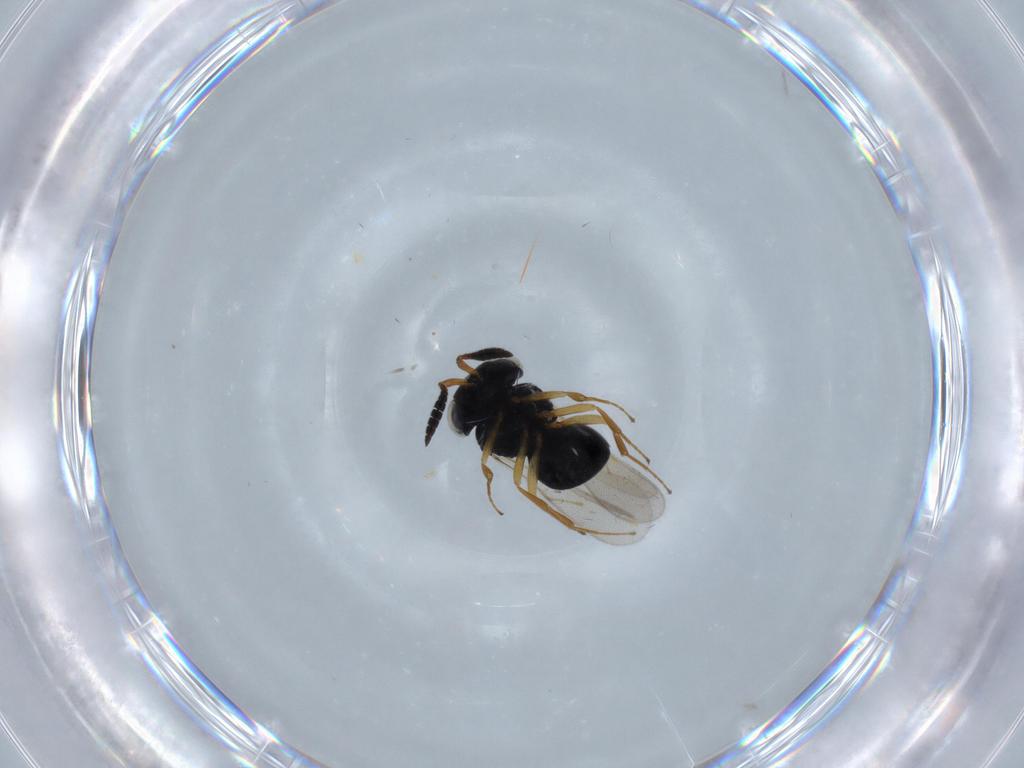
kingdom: Animalia
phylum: Arthropoda
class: Insecta
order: Hymenoptera
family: Scelionidae
